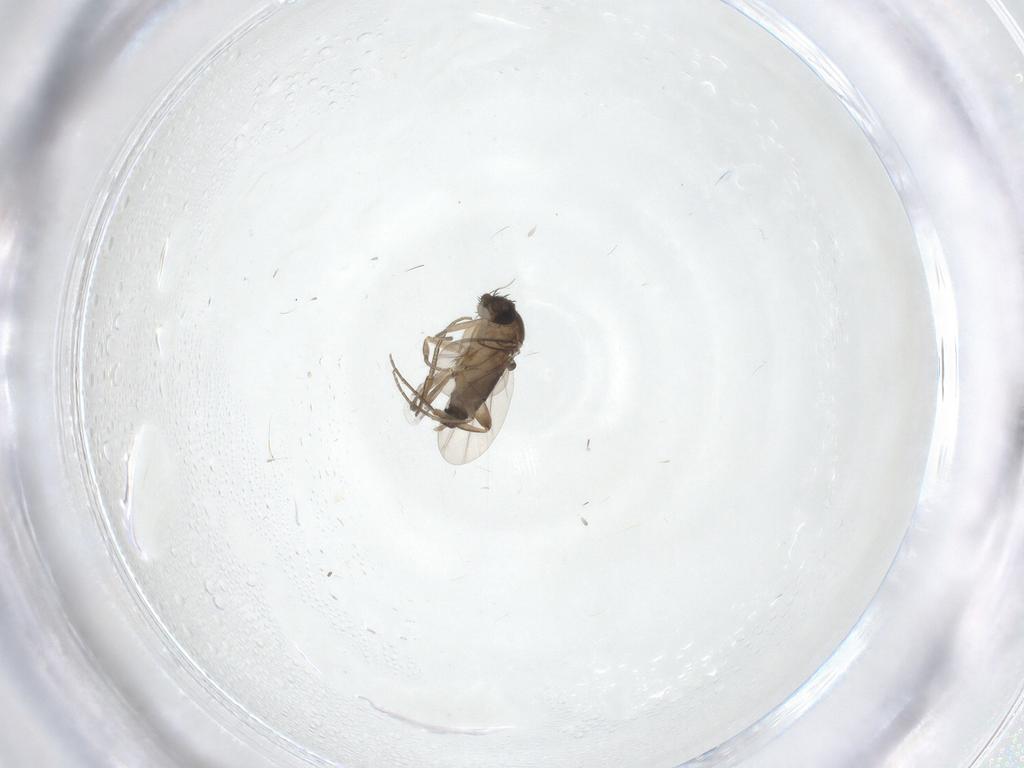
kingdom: Animalia
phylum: Arthropoda
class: Insecta
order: Diptera
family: Phoridae
